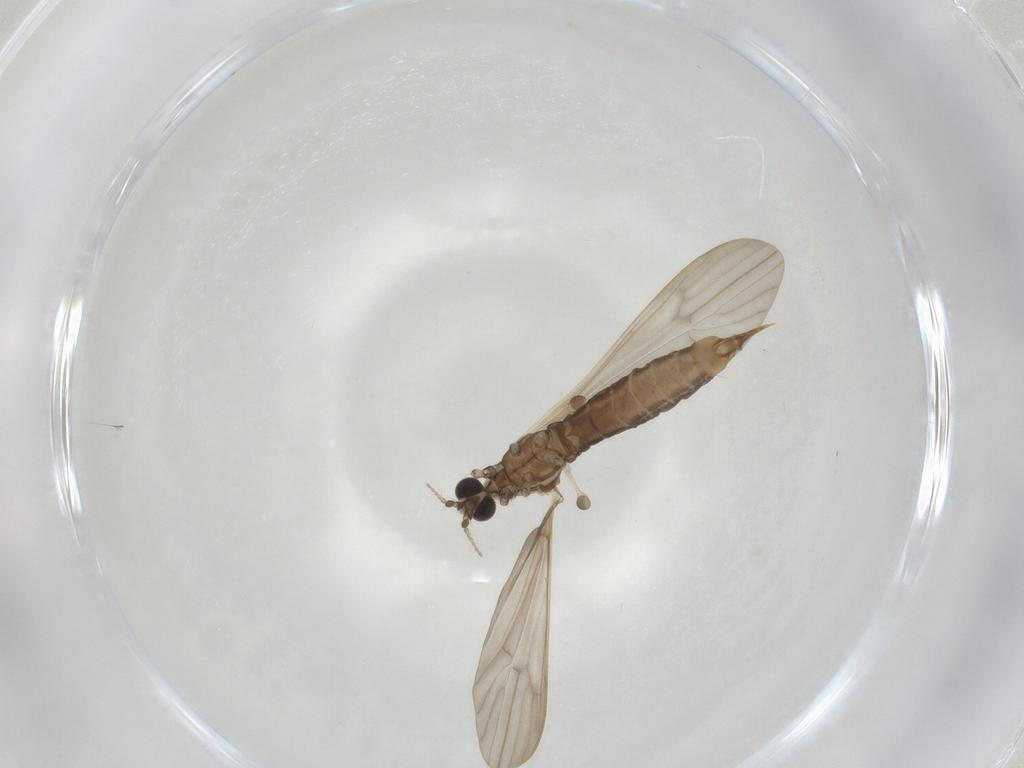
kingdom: Animalia
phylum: Arthropoda
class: Insecta
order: Diptera
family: Limoniidae
